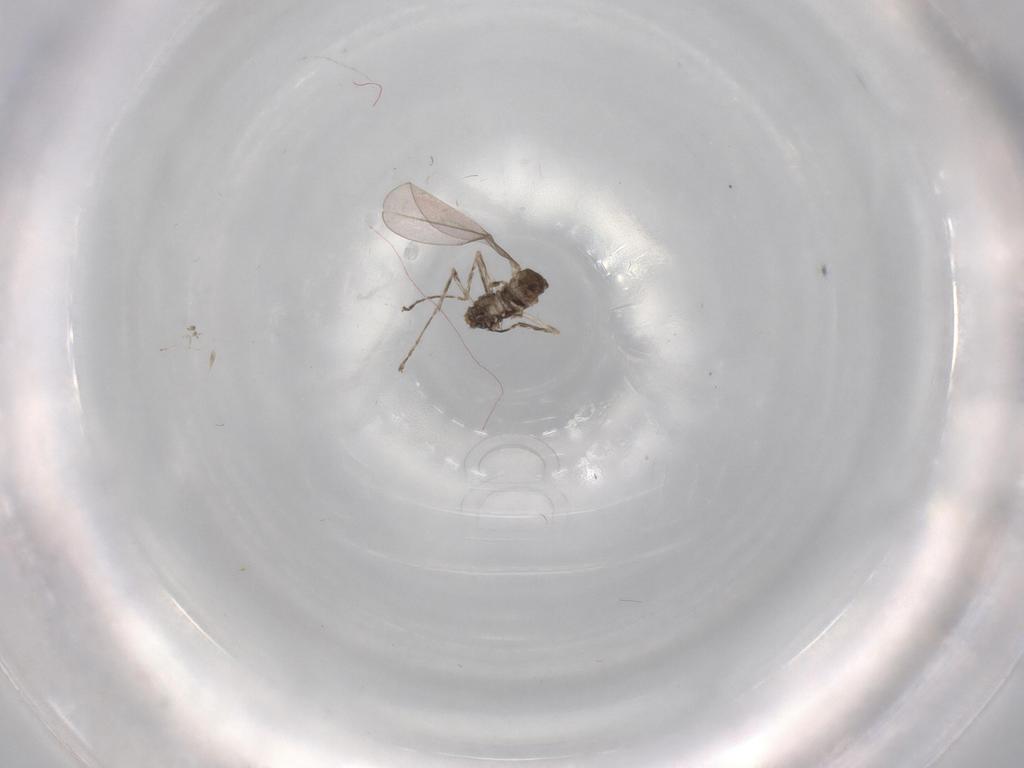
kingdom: Animalia
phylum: Arthropoda
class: Insecta
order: Diptera
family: Cecidomyiidae
